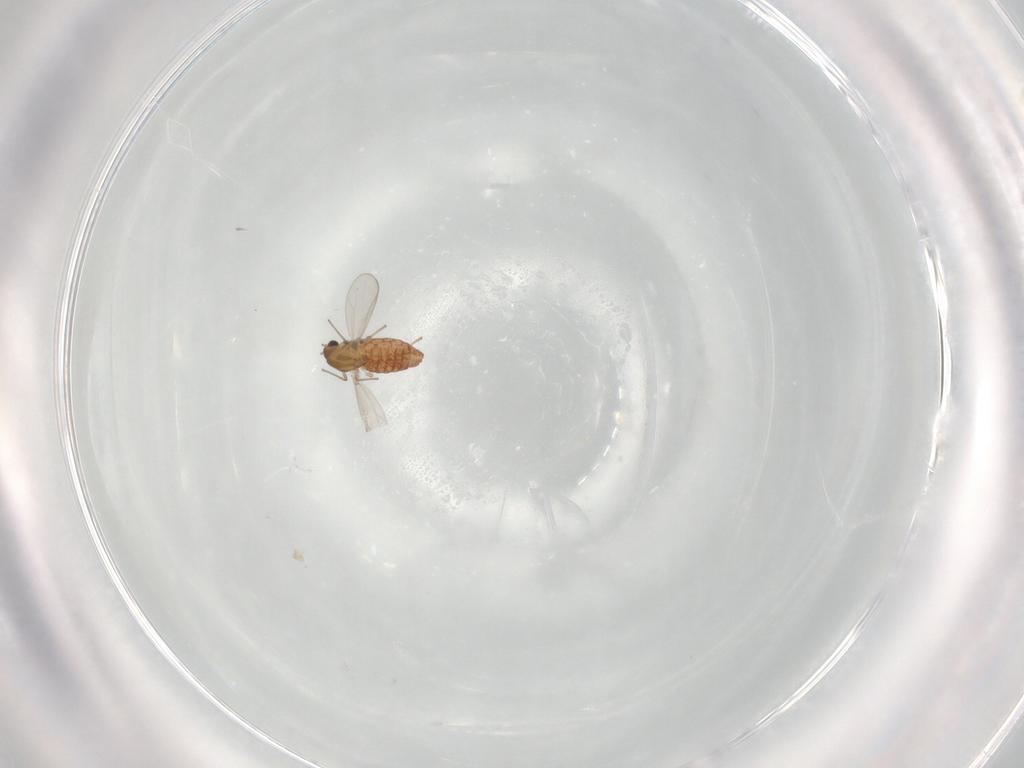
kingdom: Animalia
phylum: Arthropoda
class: Insecta
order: Diptera
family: Chironomidae
